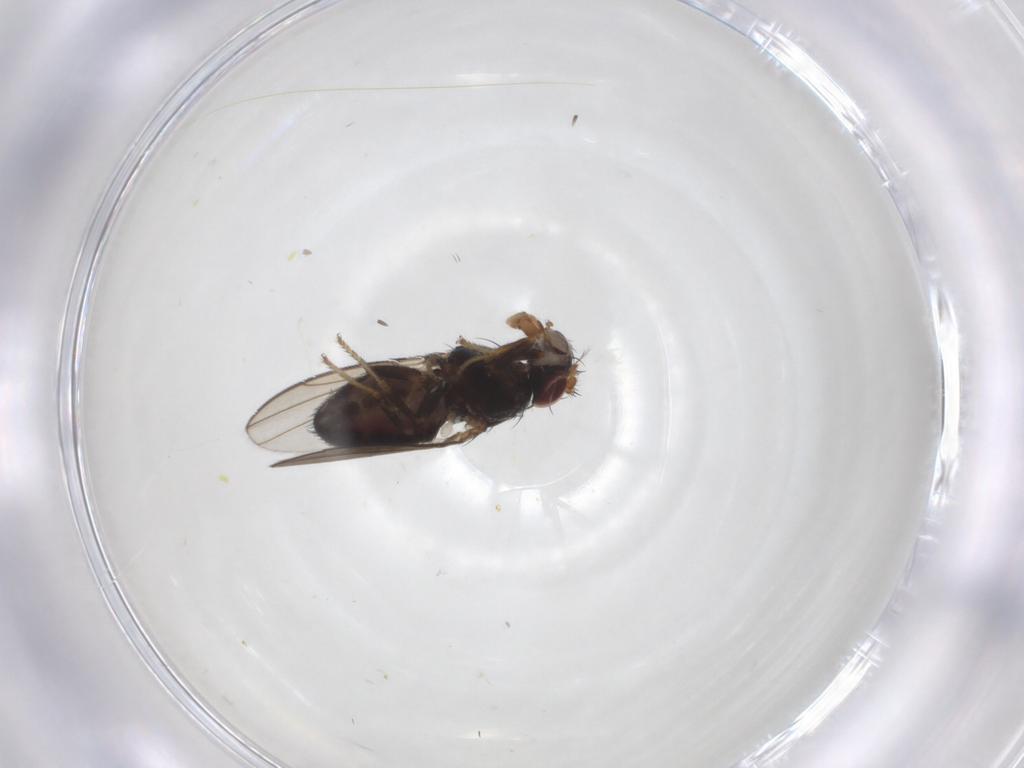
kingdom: Animalia
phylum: Arthropoda
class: Insecta
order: Diptera
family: Ephydridae
